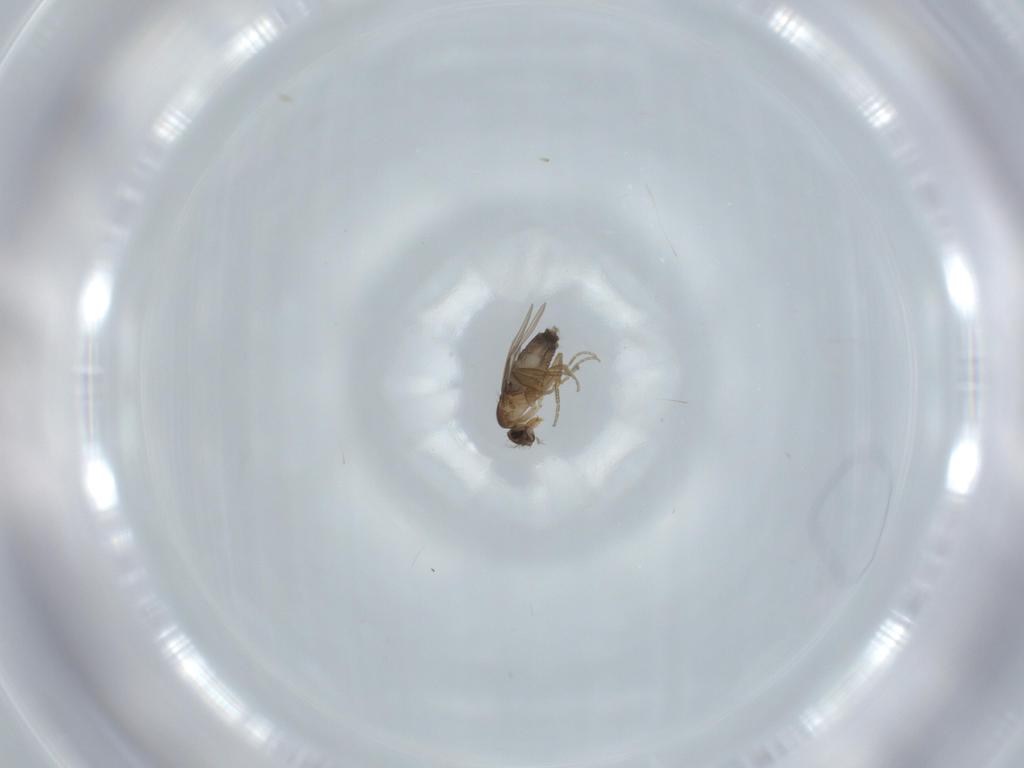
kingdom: Animalia
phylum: Arthropoda
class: Insecta
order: Diptera
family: Phoridae
